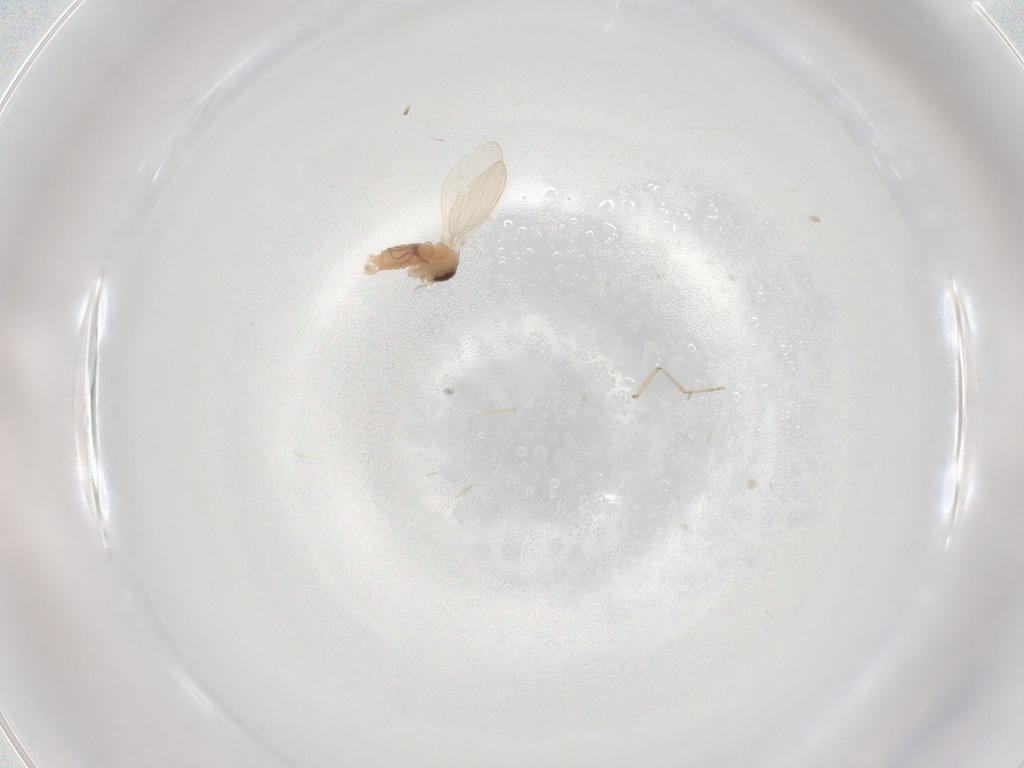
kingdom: Animalia
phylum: Arthropoda
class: Insecta
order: Diptera
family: Psychodidae
